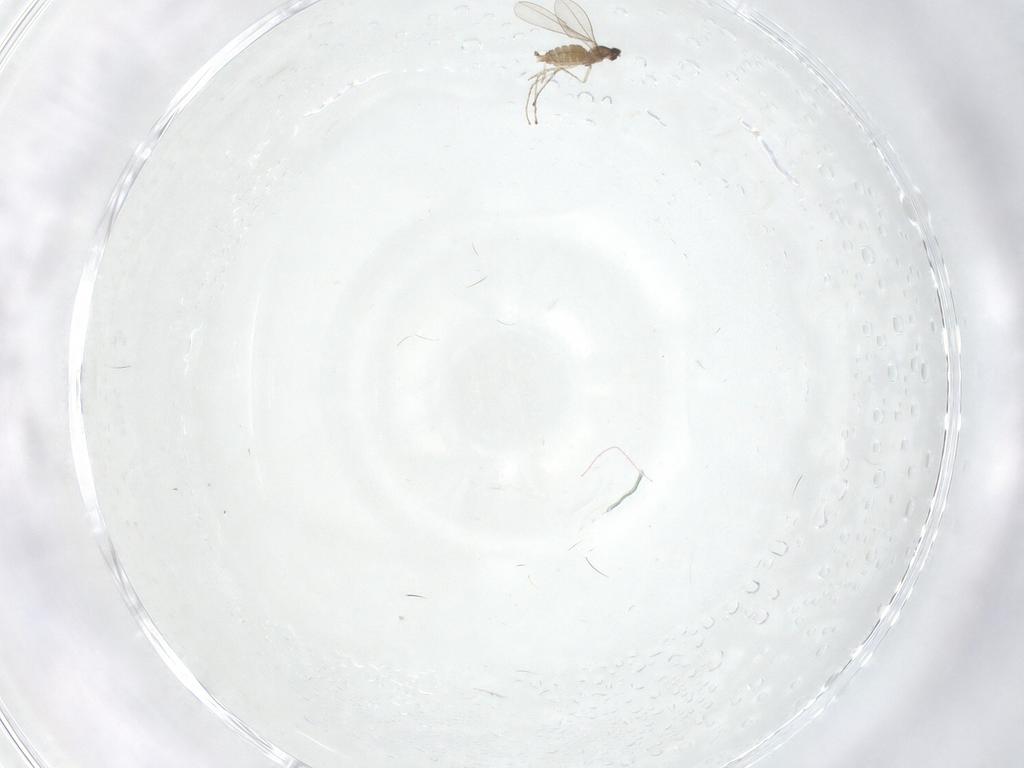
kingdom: Animalia
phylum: Arthropoda
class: Insecta
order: Diptera
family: Cecidomyiidae
